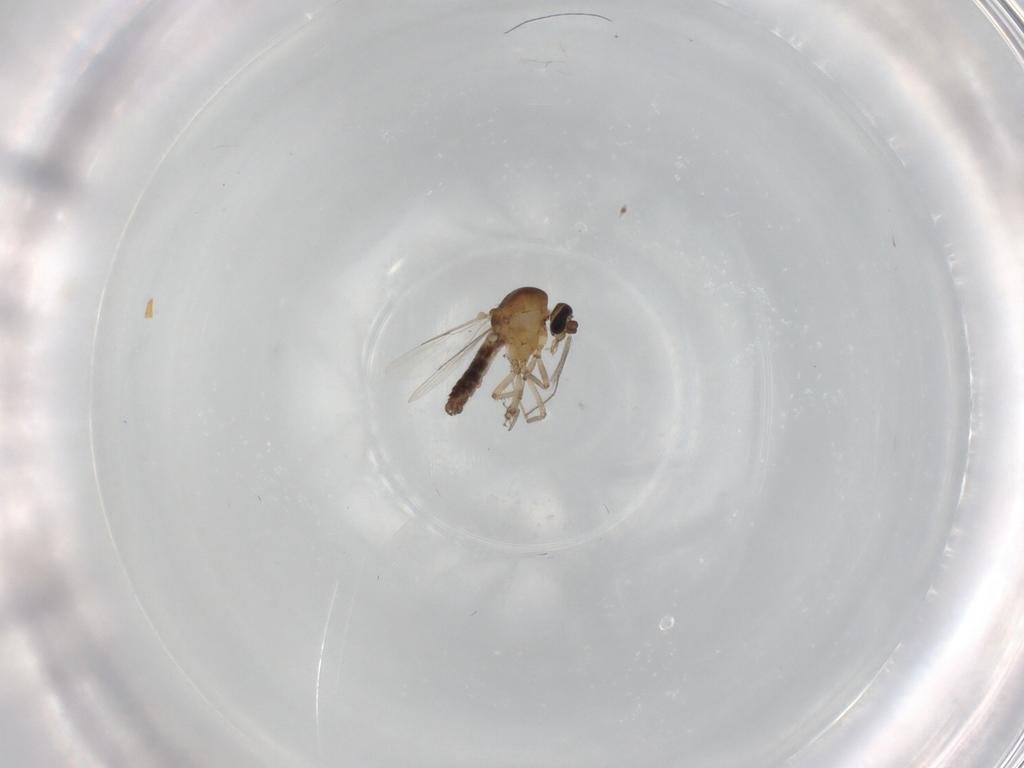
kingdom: Animalia
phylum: Arthropoda
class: Insecta
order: Diptera
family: Ceratopogonidae
